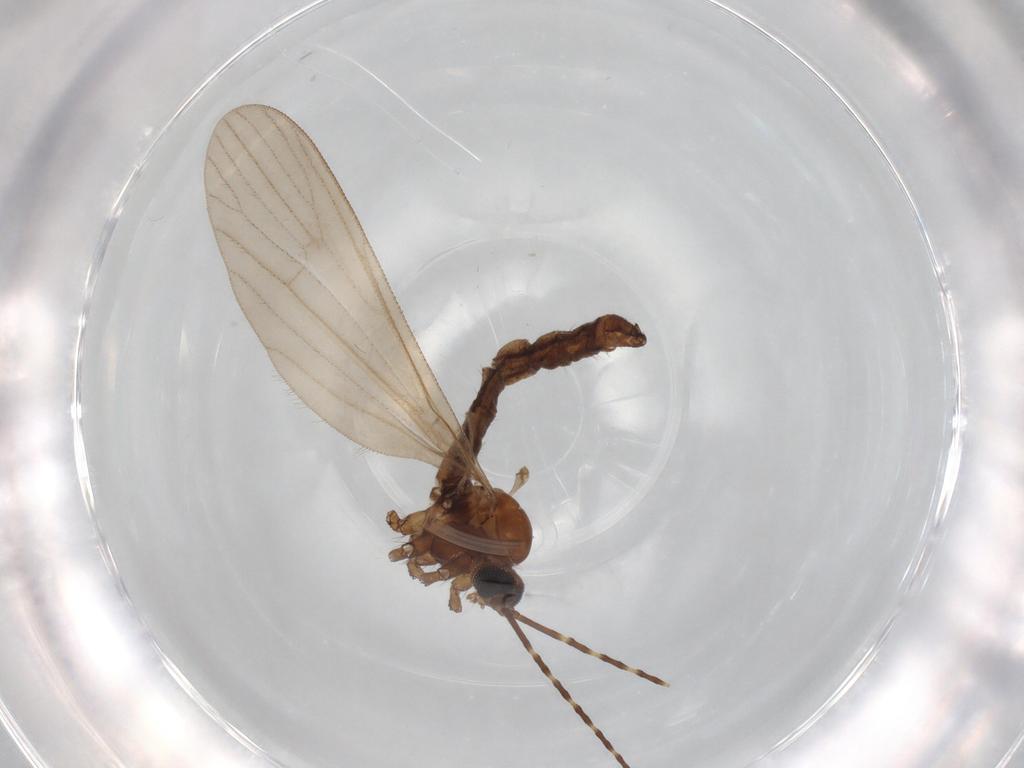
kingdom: Animalia
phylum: Arthropoda
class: Insecta
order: Diptera
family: Ceratopogonidae
